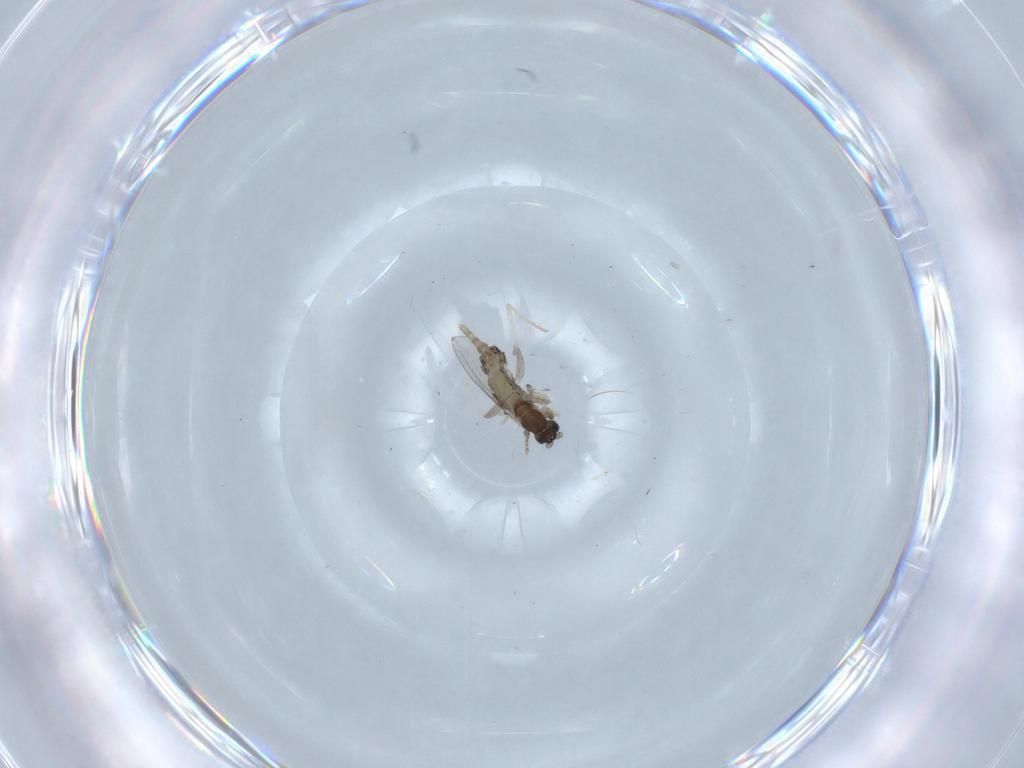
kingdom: Animalia
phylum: Arthropoda
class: Insecta
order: Diptera
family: Cecidomyiidae
